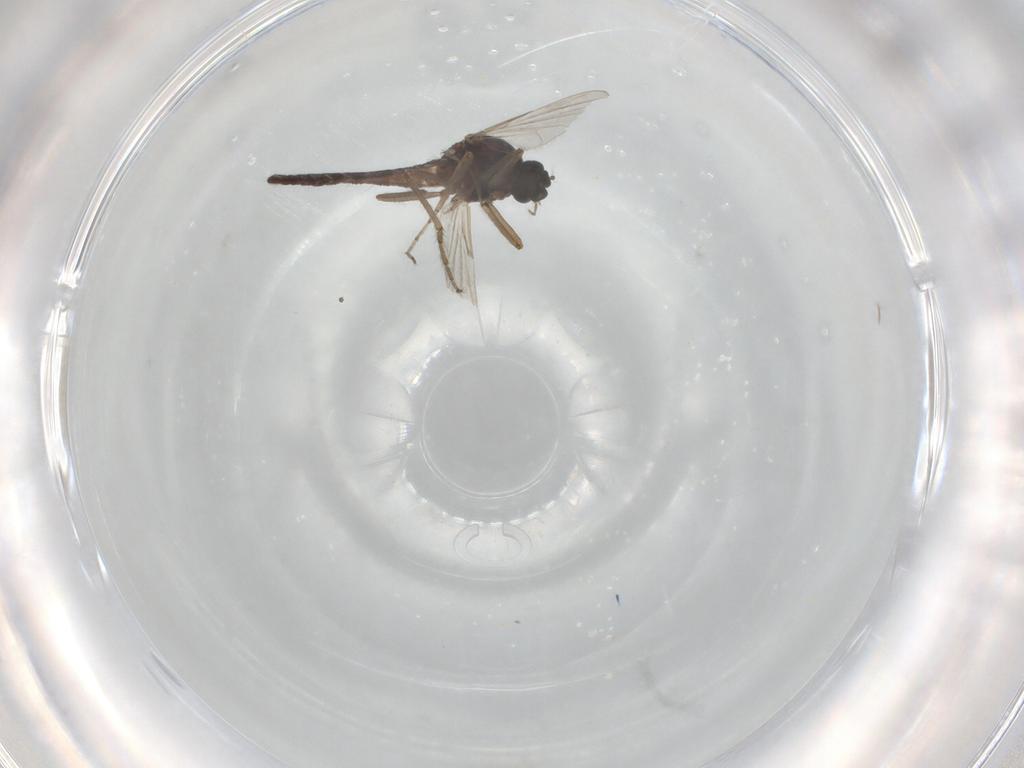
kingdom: Animalia
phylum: Arthropoda
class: Insecta
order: Diptera
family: Ceratopogonidae
